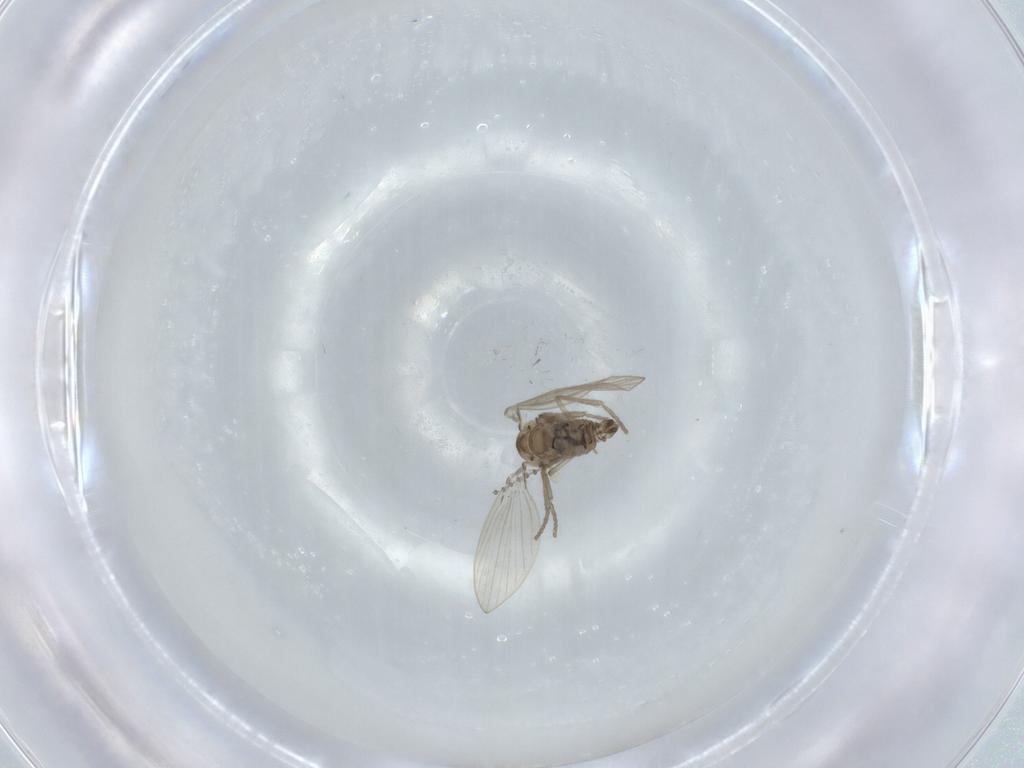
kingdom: Animalia
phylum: Arthropoda
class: Insecta
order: Diptera
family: Psychodidae
